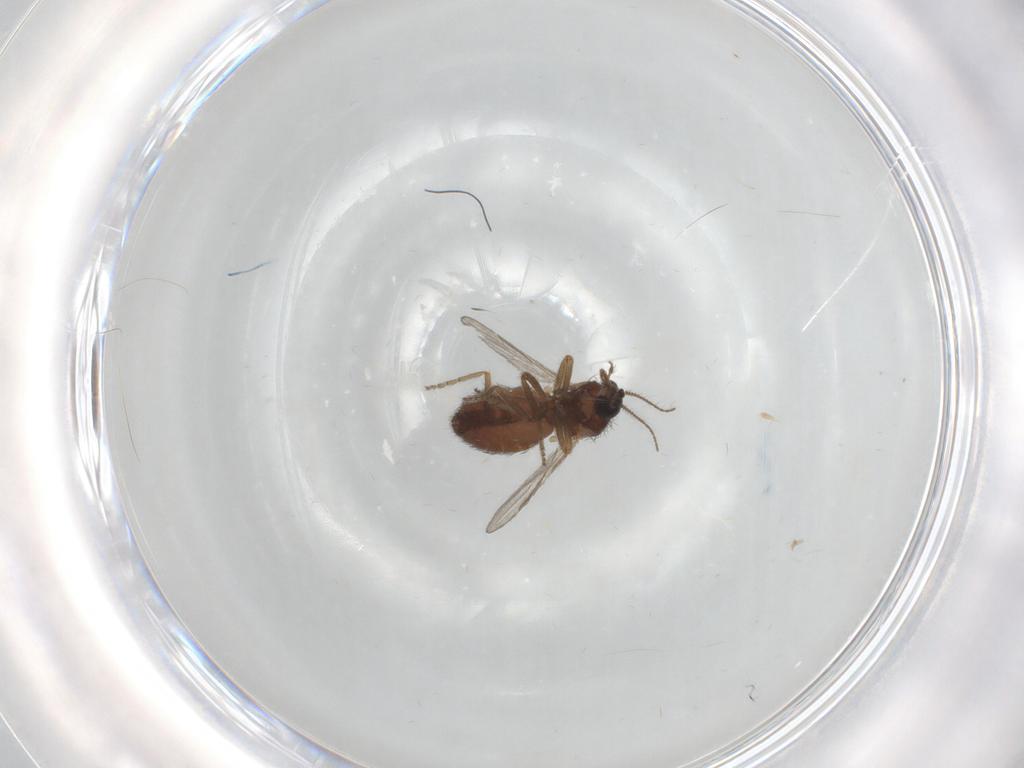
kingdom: Animalia
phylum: Arthropoda
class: Insecta
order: Diptera
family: Ceratopogonidae
